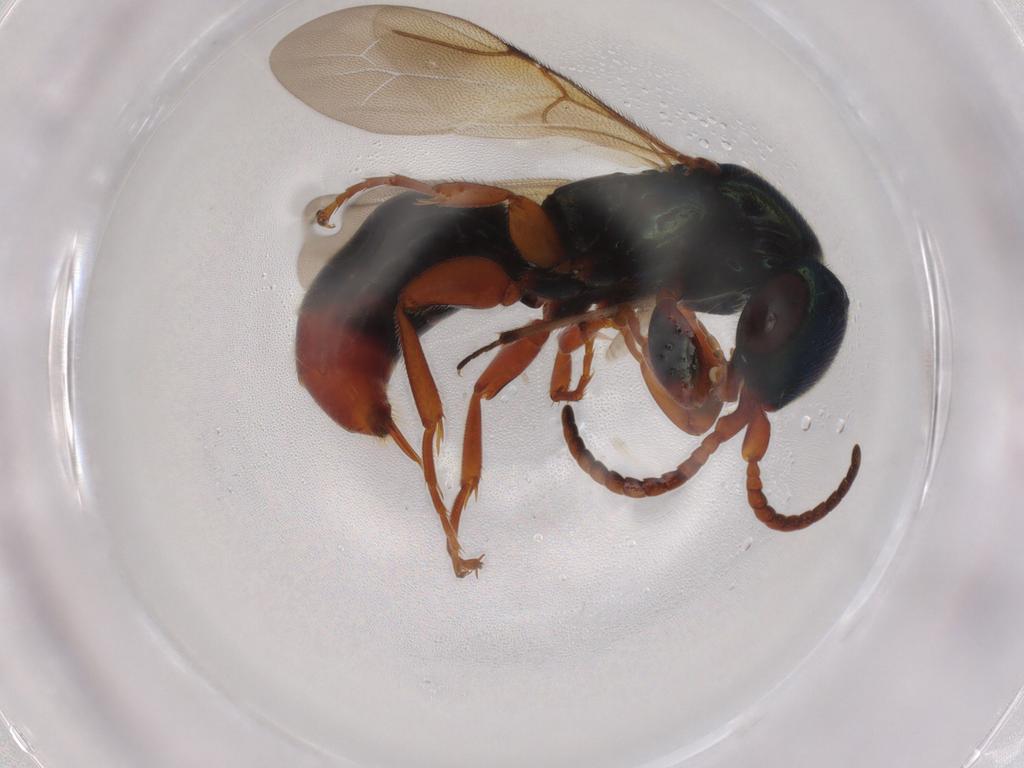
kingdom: Animalia
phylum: Arthropoda
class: Insecta
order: Hymenoptera
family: Bethylidae
